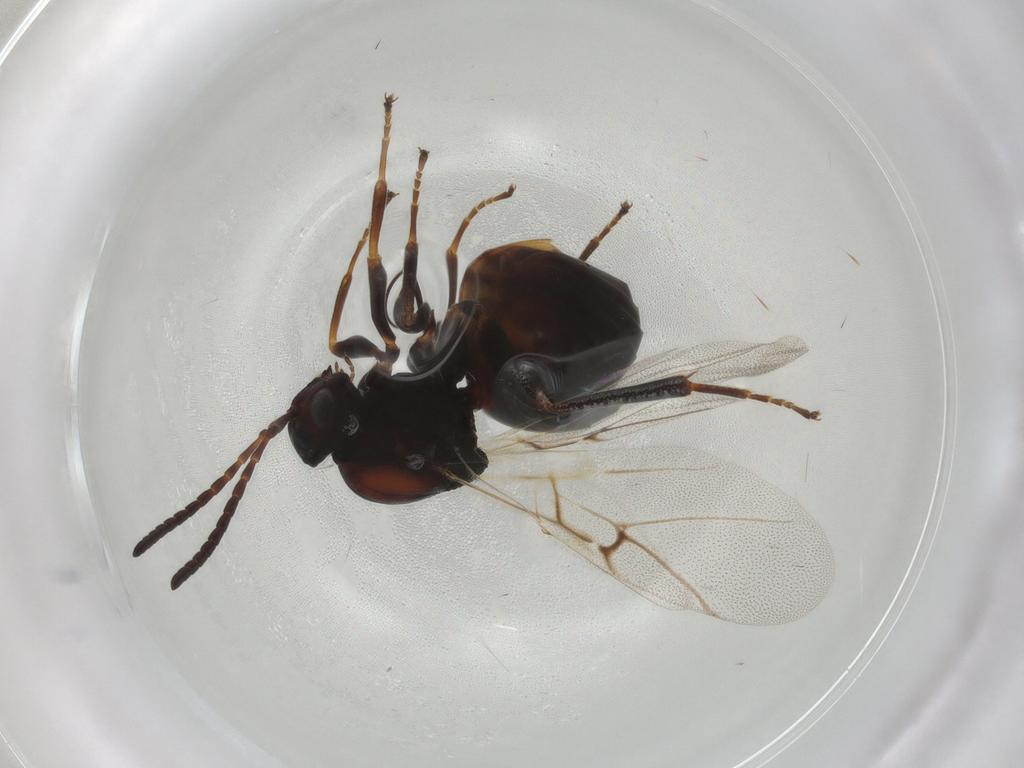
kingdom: Animalia
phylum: Arthropoda
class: Insecta
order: Hymenoptera
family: Cynipidae
